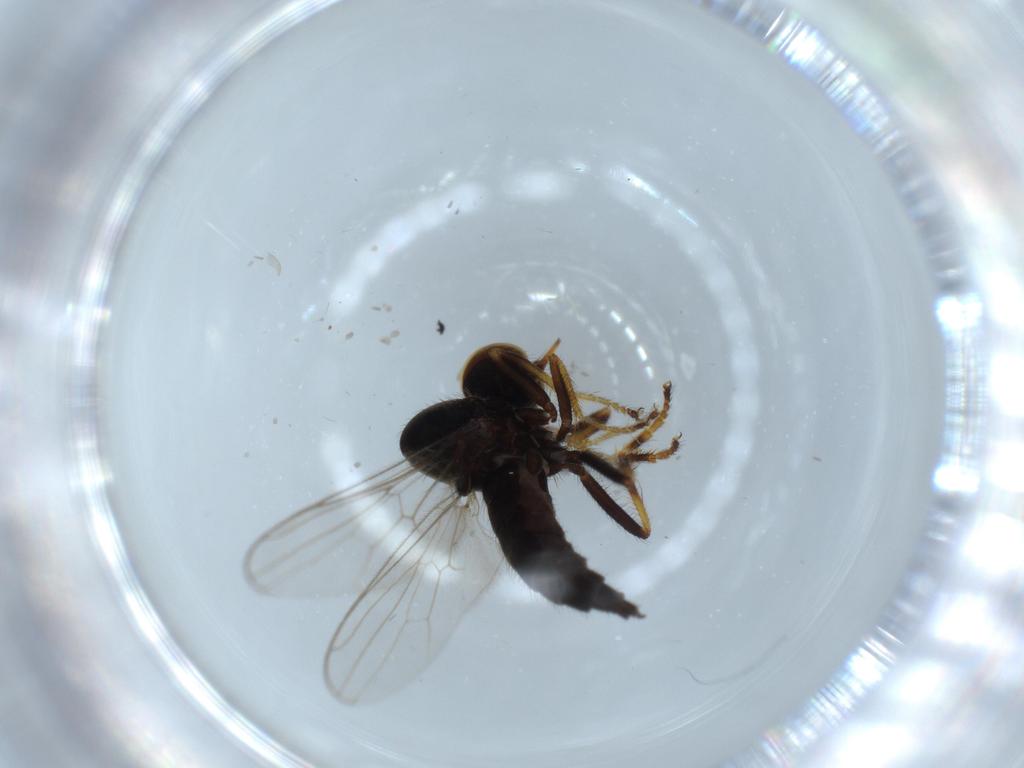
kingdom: Animalia
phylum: Arthropoda
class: Insecta
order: Diptera
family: Hybotidae
